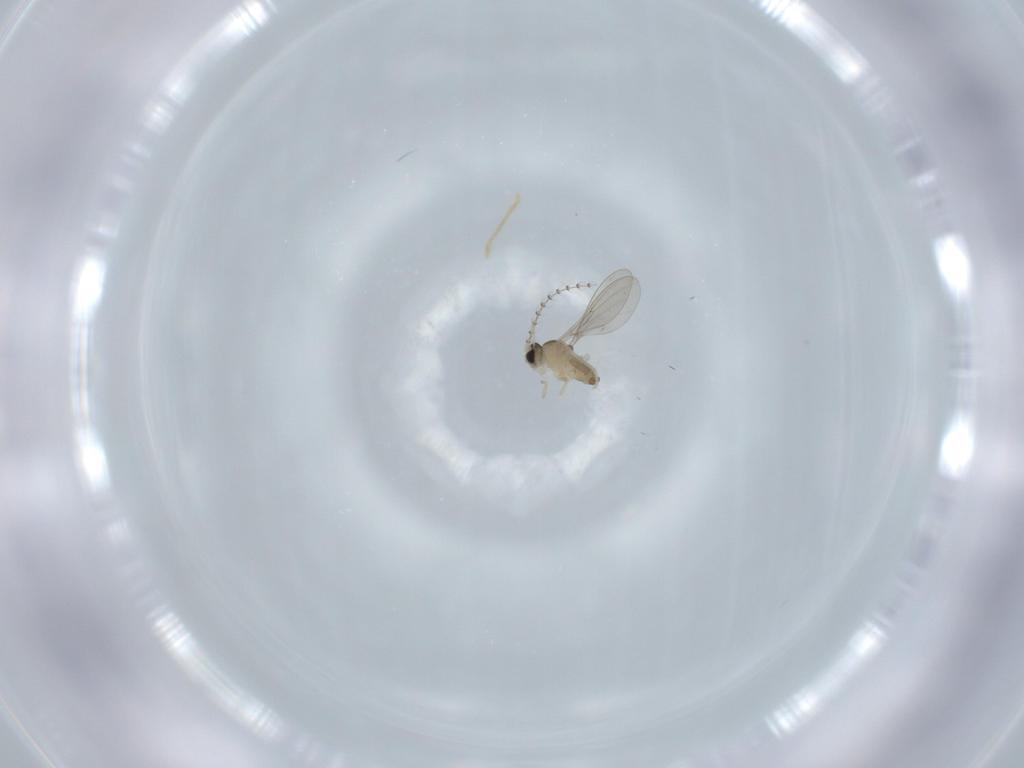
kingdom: Animalia
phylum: Arthropoda
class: Insecta
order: Diptera
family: Cecidomyiidae
